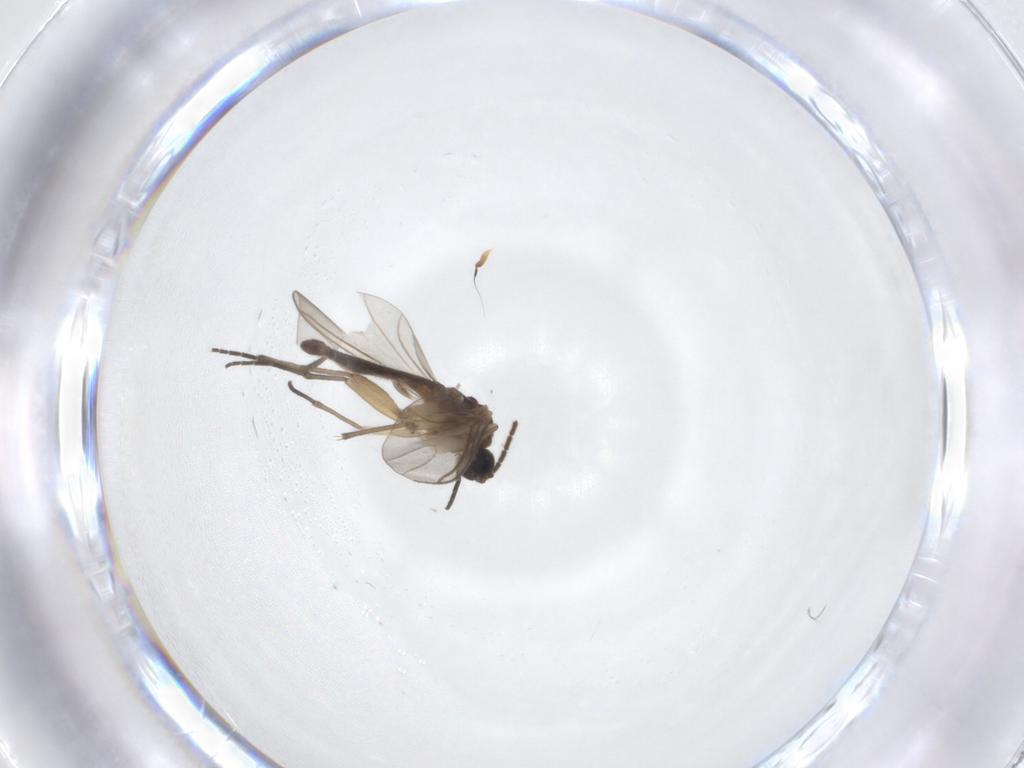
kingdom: Animalia
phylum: Arthropoda
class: Insecta
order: Diptera
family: Sciaridae
